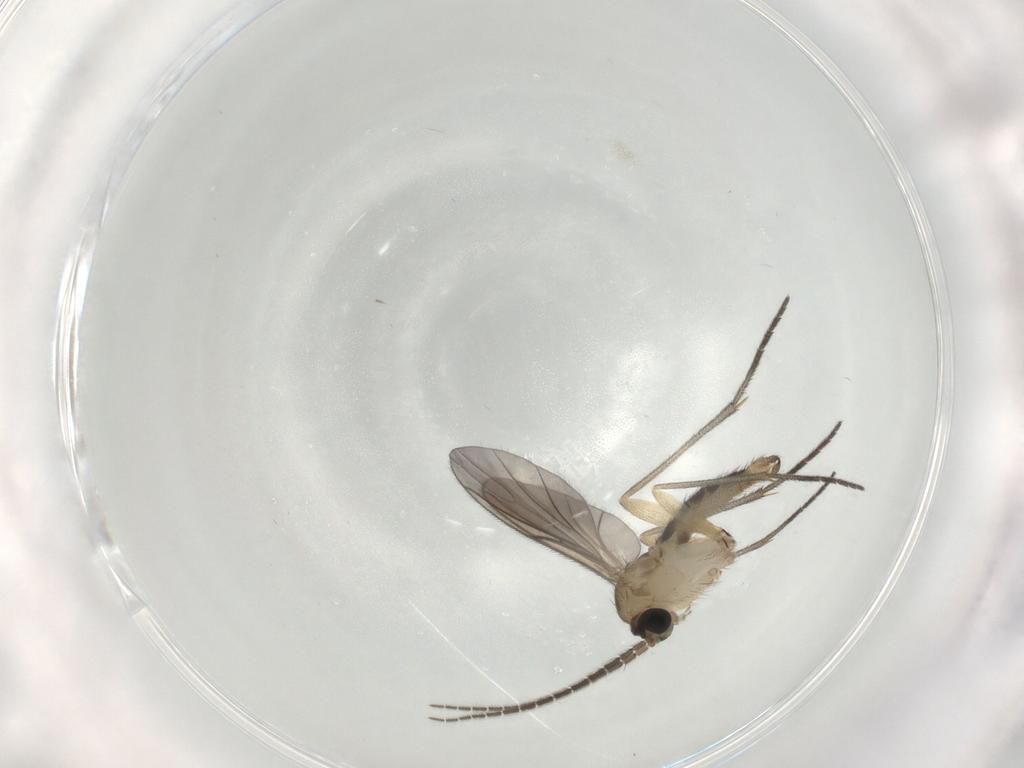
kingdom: Animalia
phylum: Arthropoda
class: Insecta
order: Diptera
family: Sciaridae
